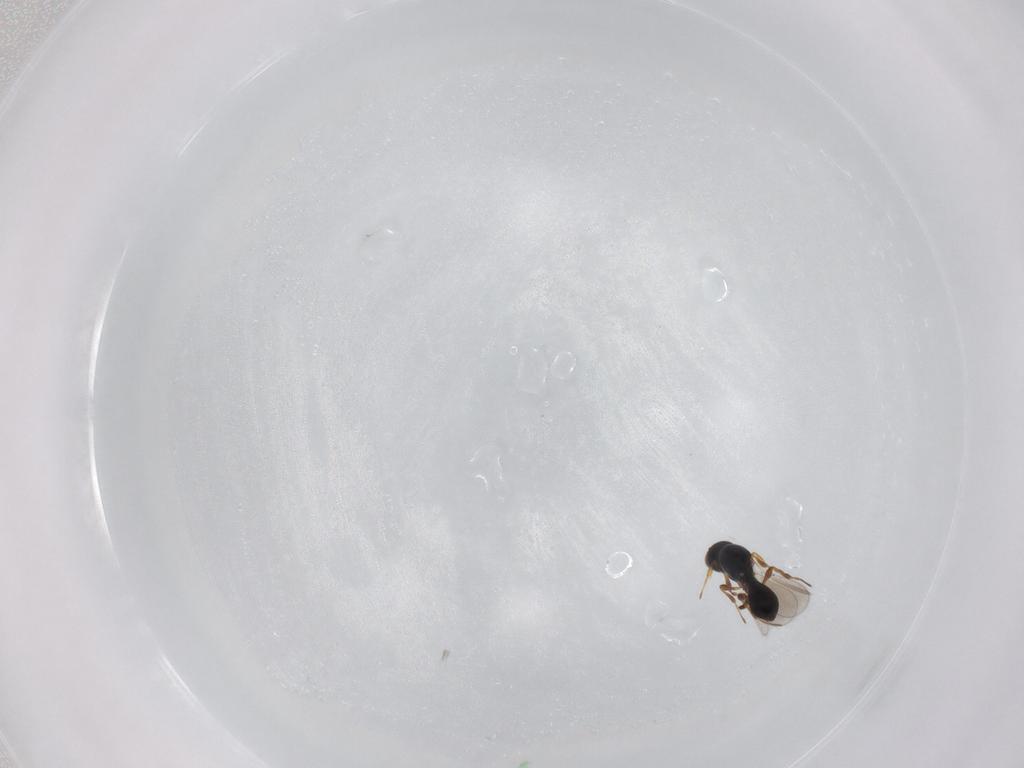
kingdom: Animalia
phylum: Arthropoda
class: Insecta
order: Hymenoptera
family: Platygastridae
